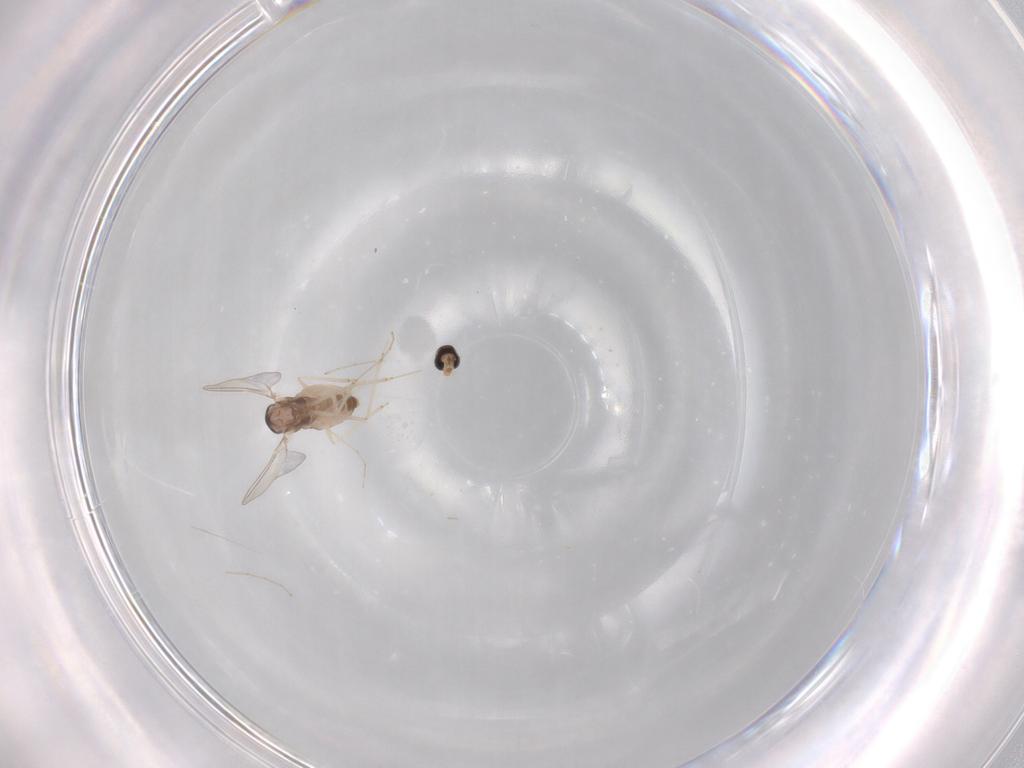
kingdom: Animalia
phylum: Arthropoda
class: Insecta
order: Diptera
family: Cecidomyiidae
